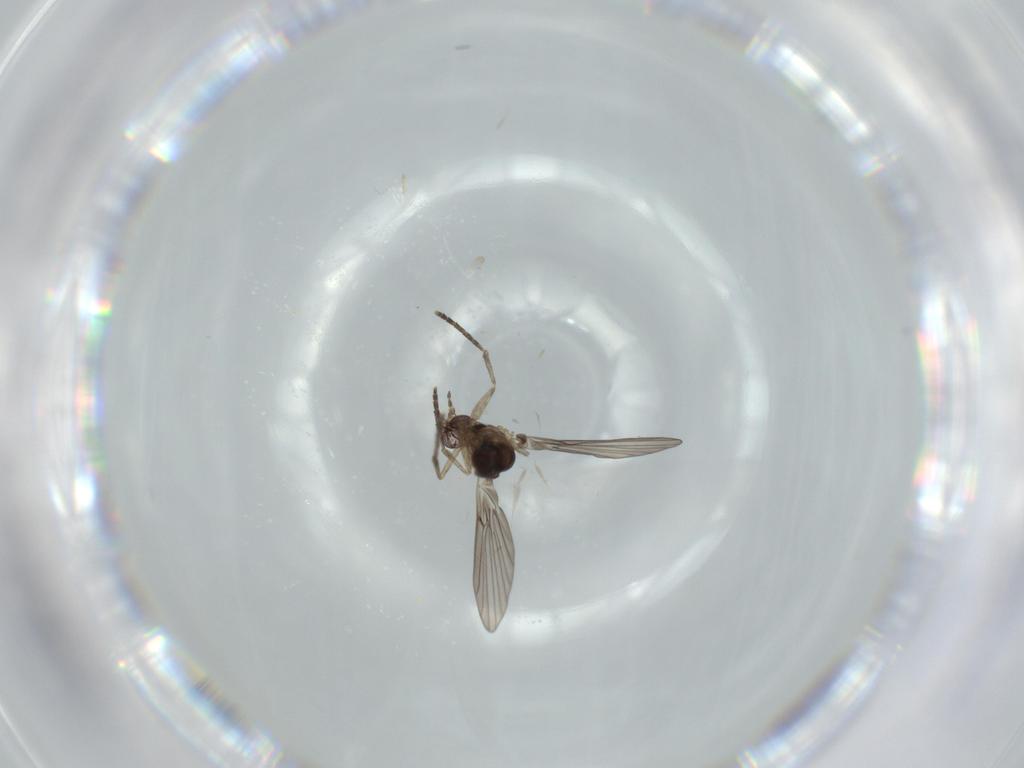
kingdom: Animalia
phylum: Arthropoda
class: Insecta
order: Diptera
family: Psychodidae
